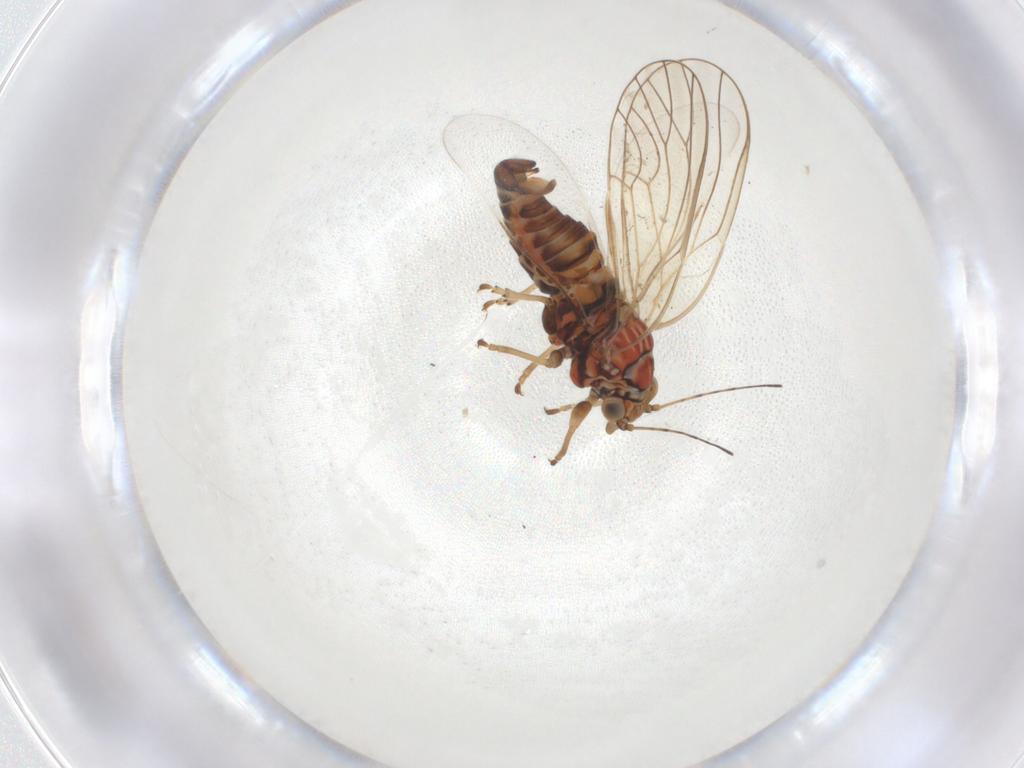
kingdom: Animalia
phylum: Arthropoda
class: Insecta
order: Hemiptera
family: Psyllidae
